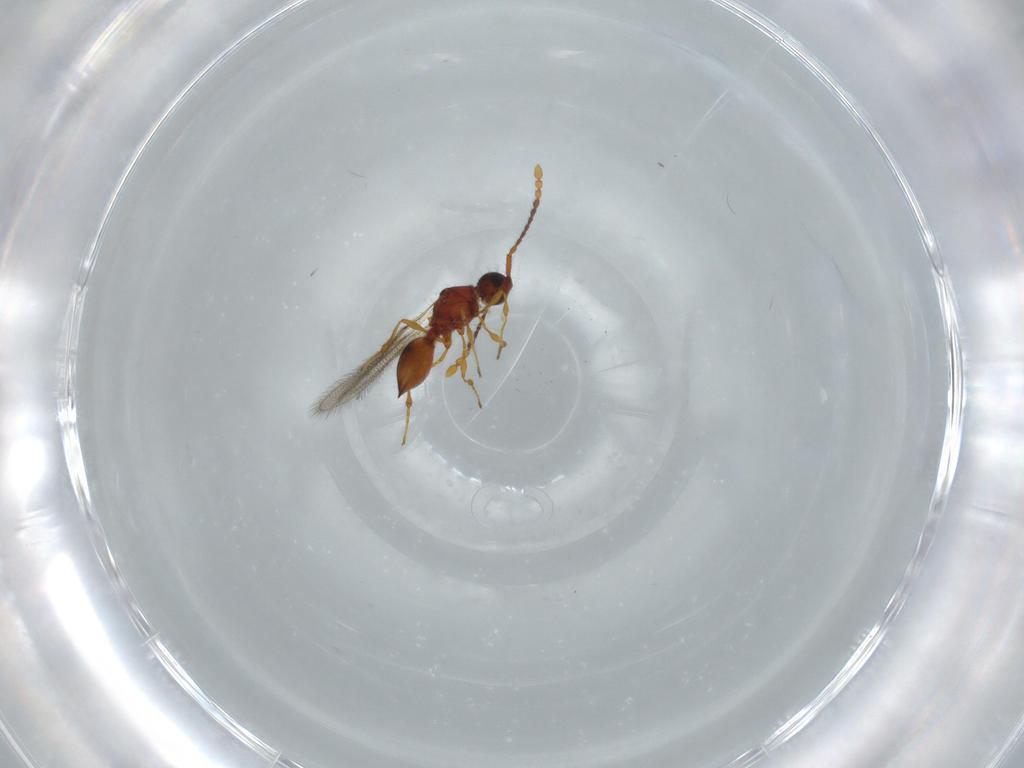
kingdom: Animalia
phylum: Arthropoda
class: Insecta
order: Hymenoptera
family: Diapriidae
